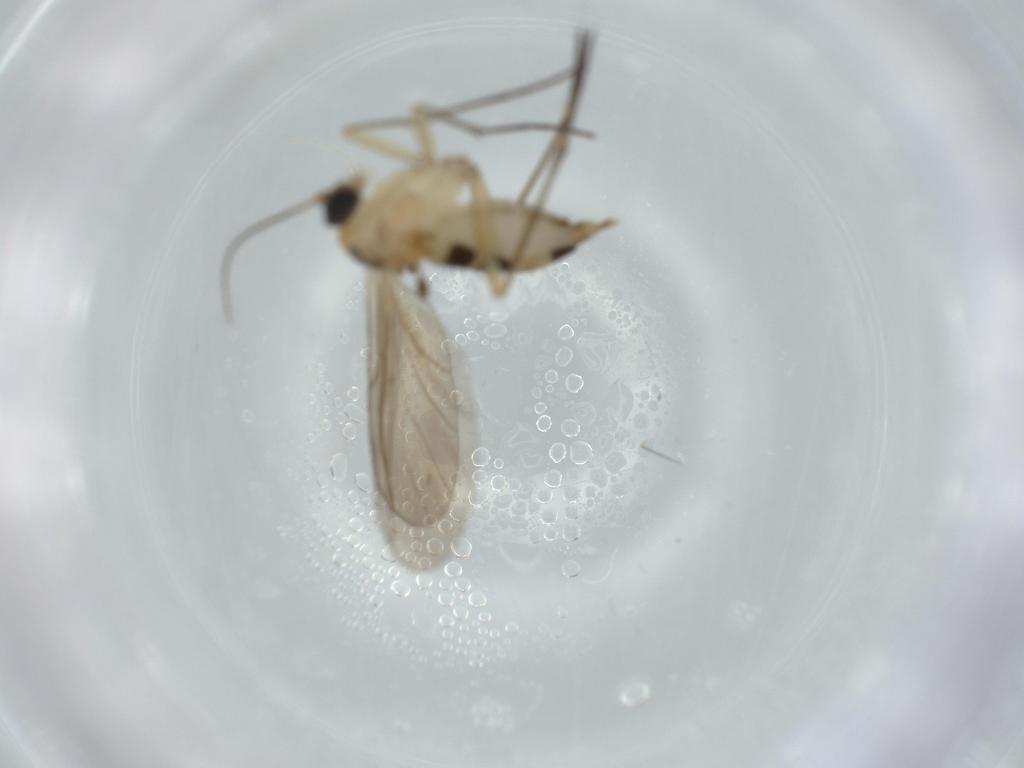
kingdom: Animalia
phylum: Arthropoda
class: Insecta
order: Diptera
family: Sciaridae
